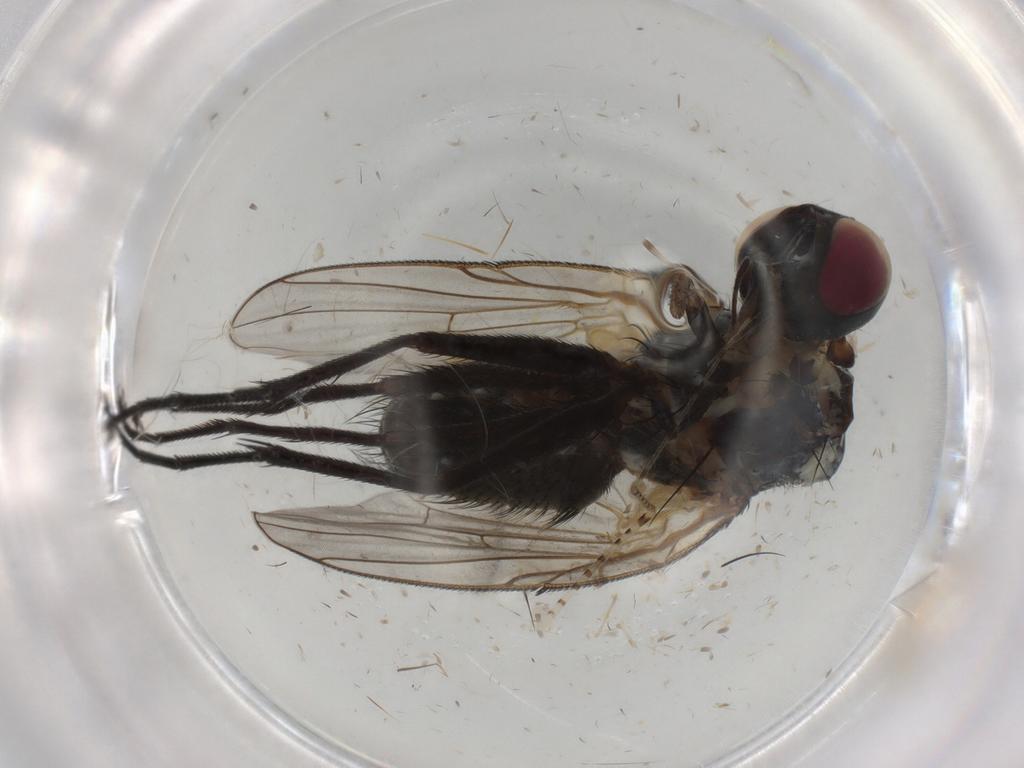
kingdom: Animalia
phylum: Arthropoda
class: Insecta
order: Diptera
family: Muscidae
